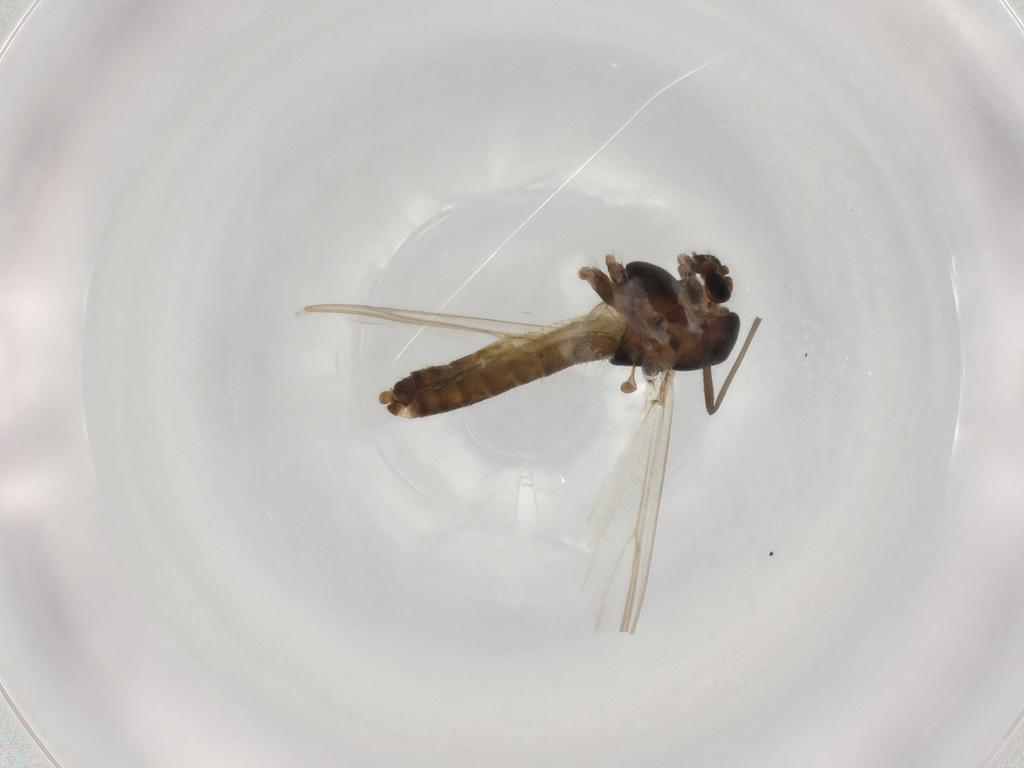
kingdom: Animalia
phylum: Arthropoda
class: Insecta
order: Diptera
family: Chironomidae
